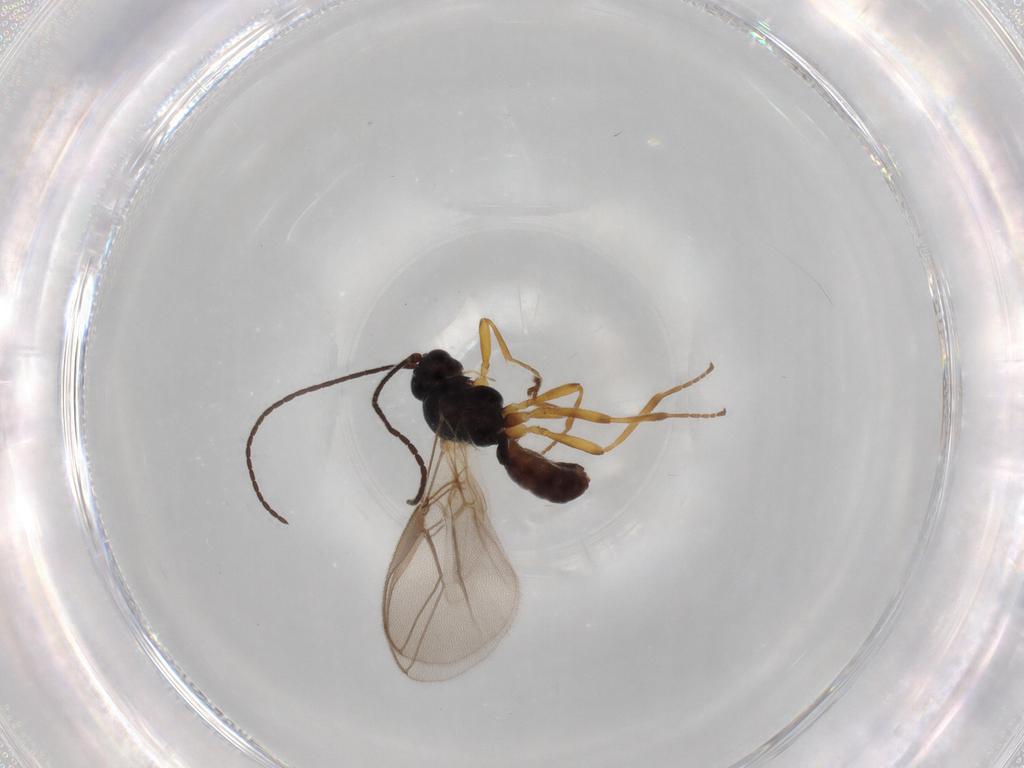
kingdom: Animalia
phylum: Arthropoda
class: Insecta
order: Hymenoptera
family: Braconidae
